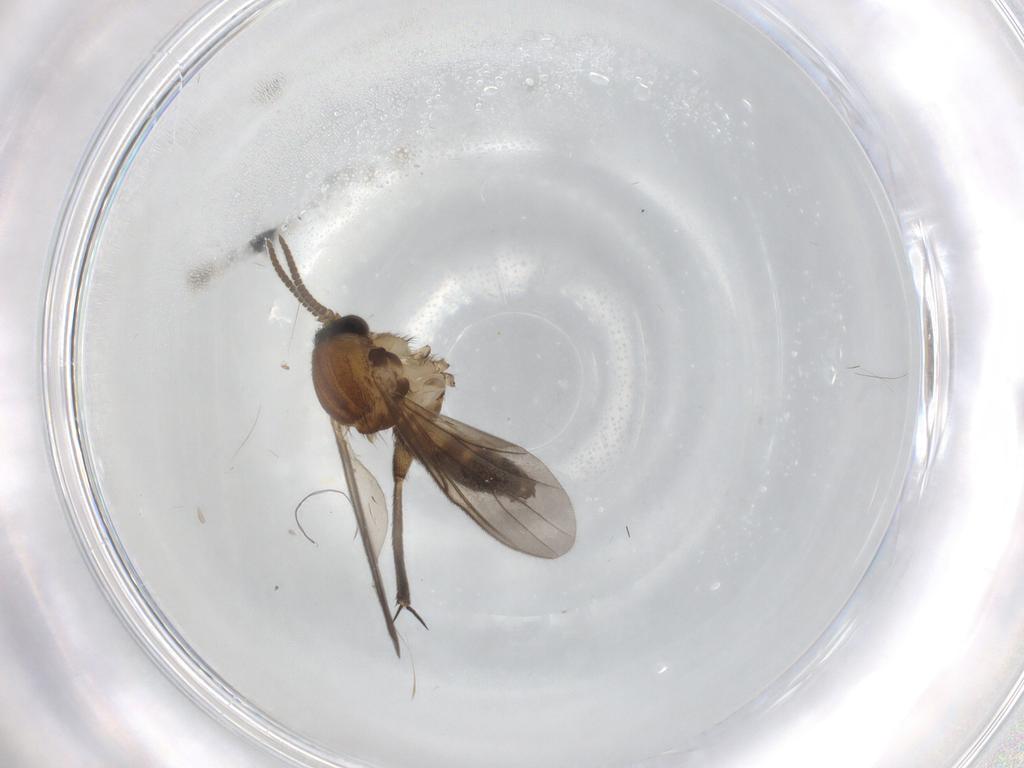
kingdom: Animalia
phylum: Arthropoda
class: Insecta
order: Diptera
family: Mycetophilidae
